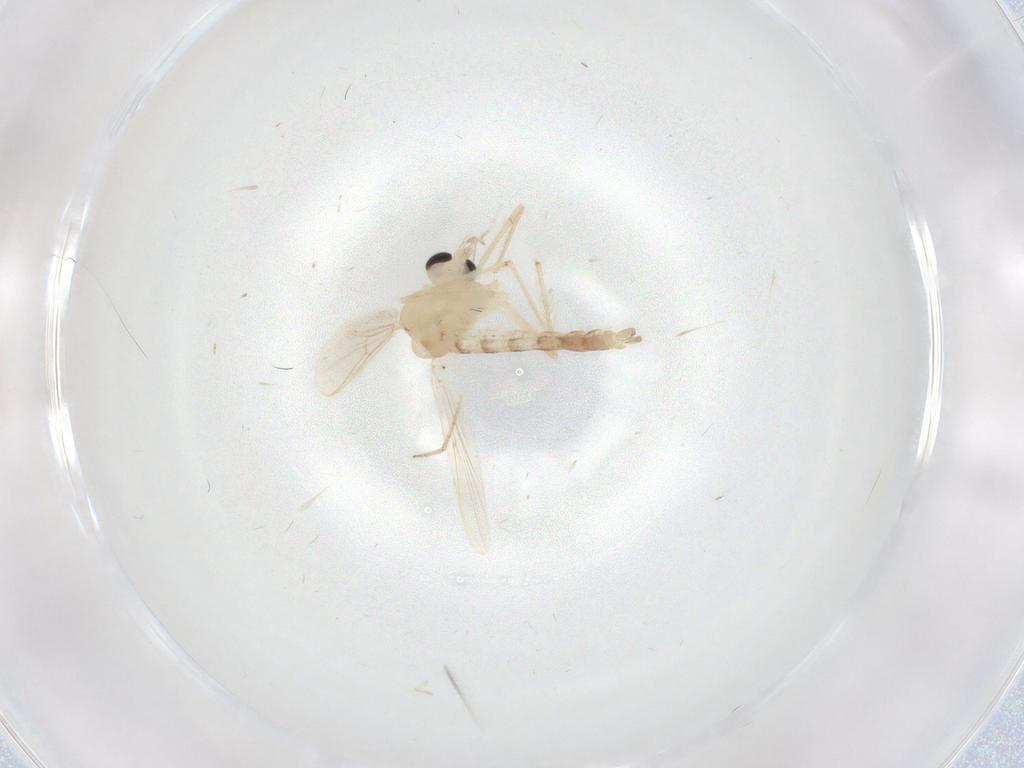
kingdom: Animalia
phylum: Arthropoda
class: Insecta
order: Diptera
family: Chironomidae
